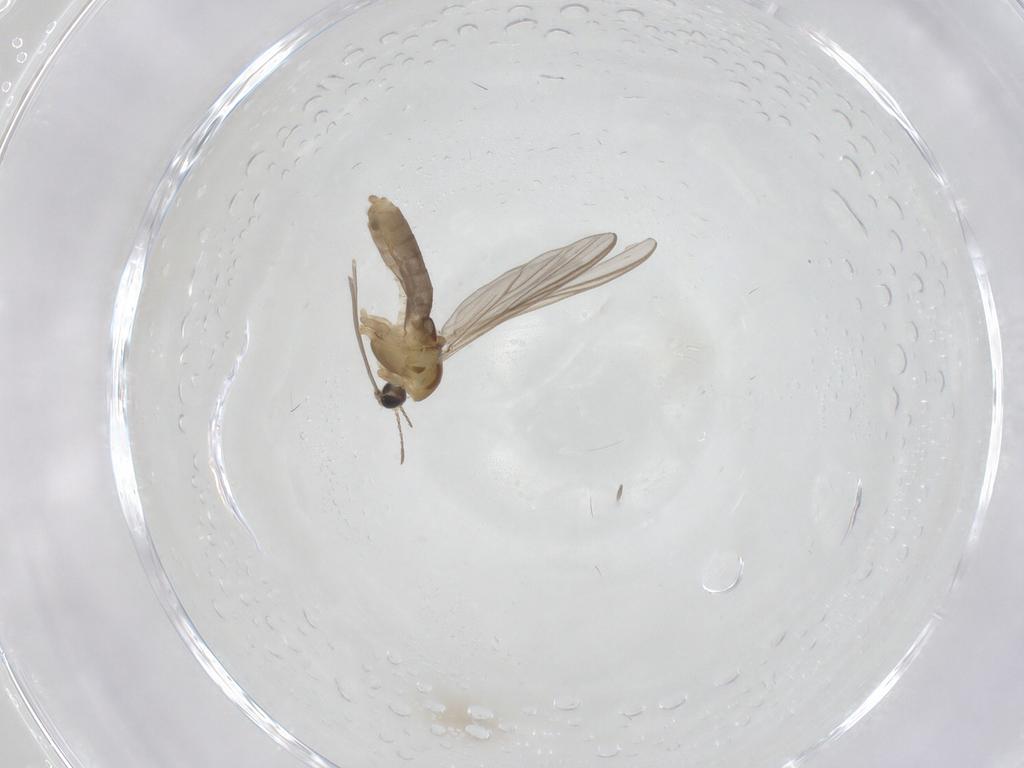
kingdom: Animalia
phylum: Arthropoda
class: Insecta
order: Diptera
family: Chironomidae
